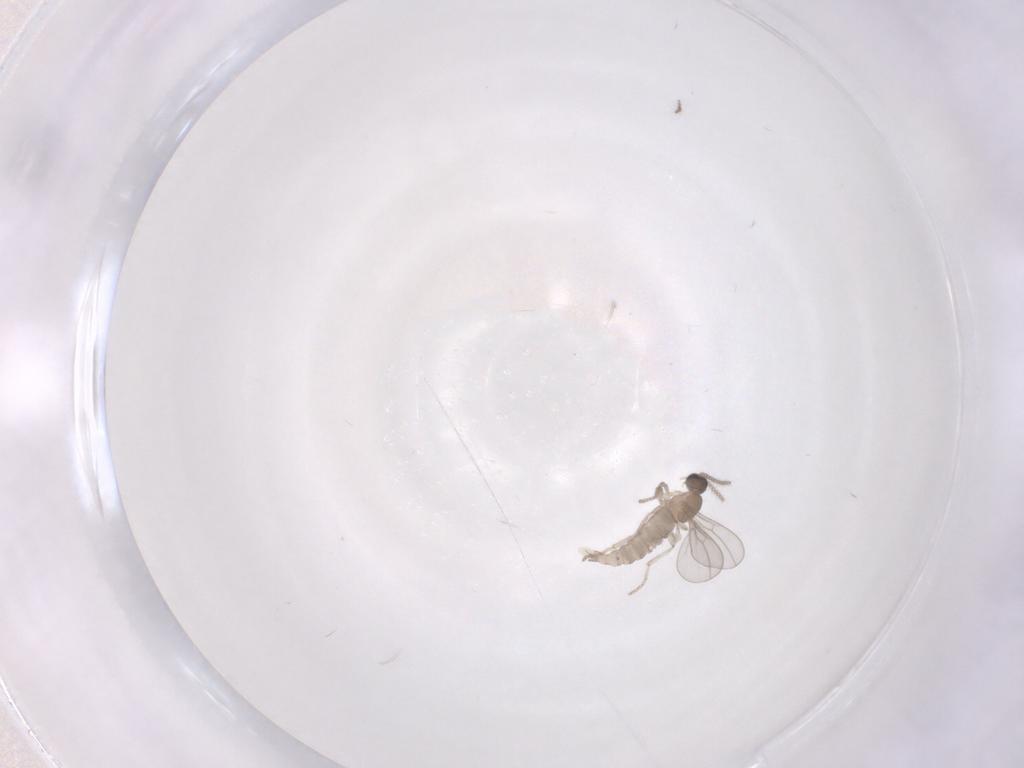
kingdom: Animalia
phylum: Arthropoda
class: Insecta
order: Diptera
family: Cecidomyiidae
